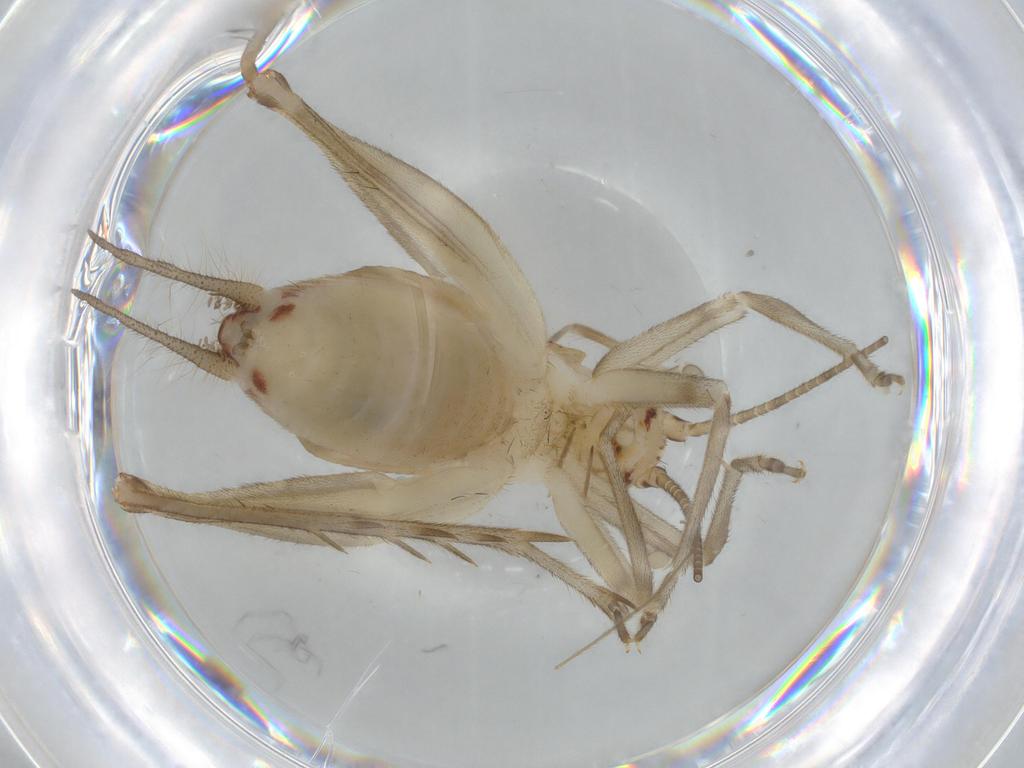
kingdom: Animalia
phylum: Arthropoda
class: Insecta
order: Orthoptera
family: Trigonidiidae
